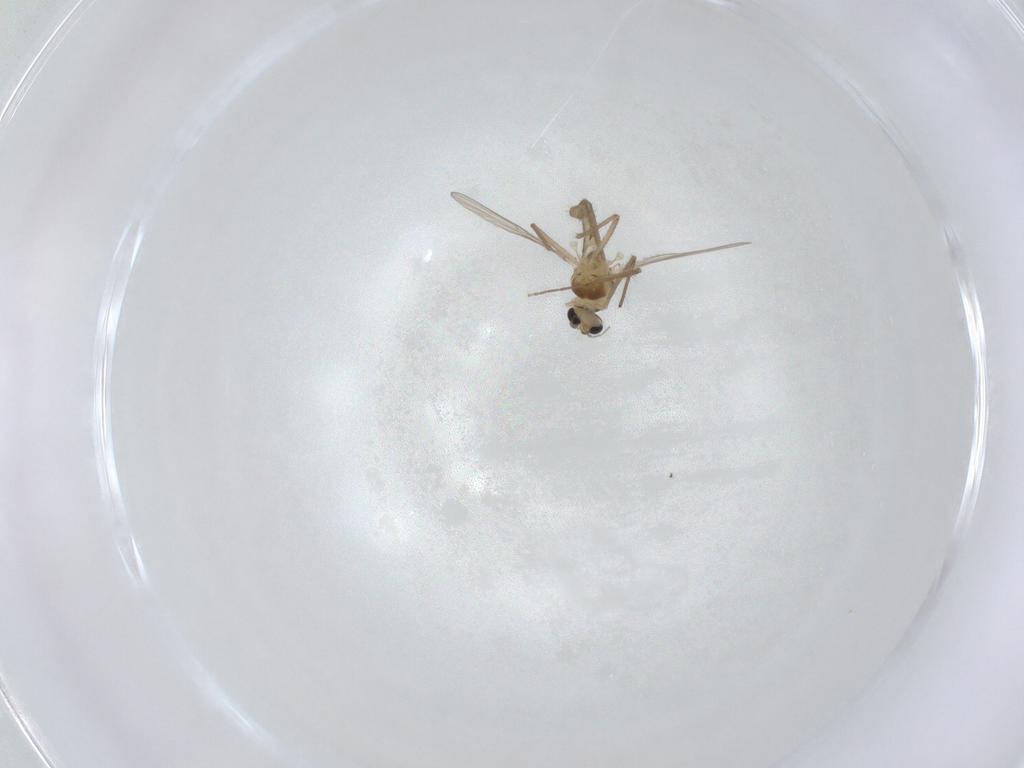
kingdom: Animalia
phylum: Arthropoda
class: Insecta
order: Diptera
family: Chironomidae
